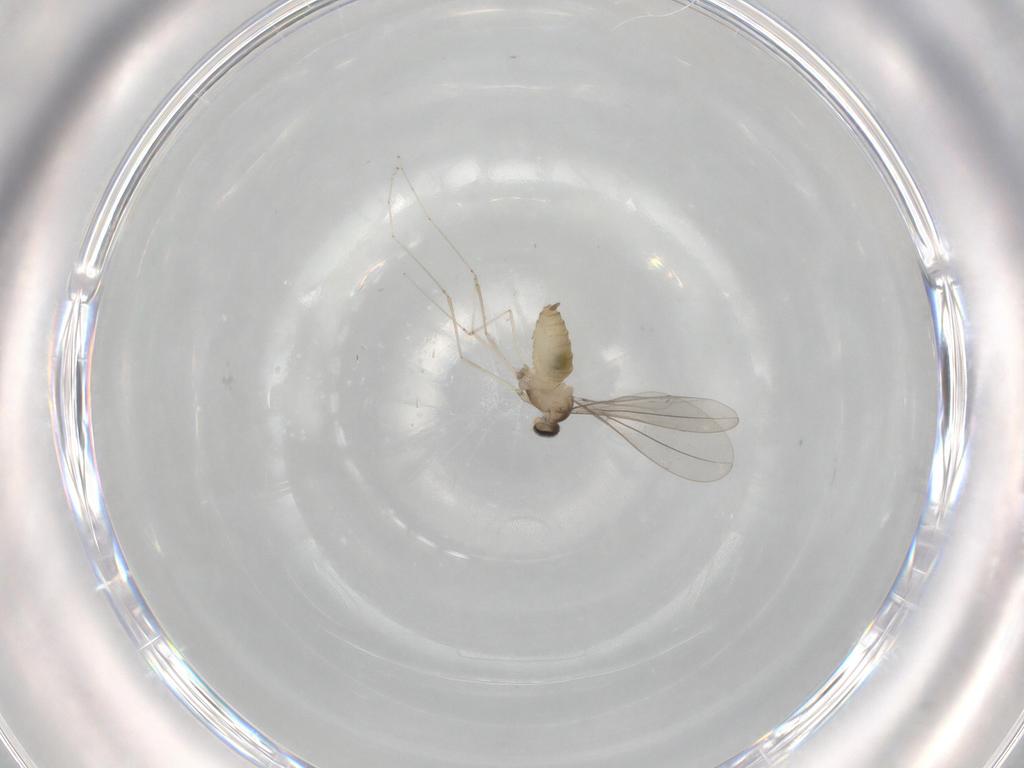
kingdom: Animalia
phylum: Arthropoda
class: Insecta
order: Diptera
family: Cecidomyiidae
